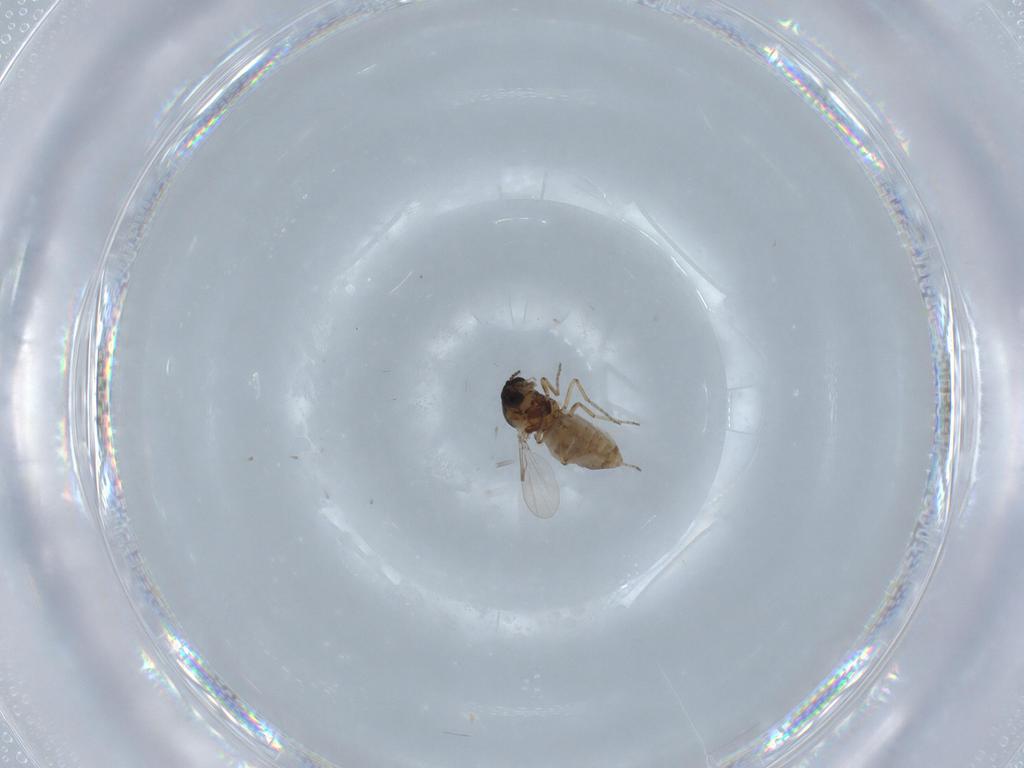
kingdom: Animalia
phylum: Arthropoda
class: Insecta
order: Diptera
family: Ceratopogonidae
